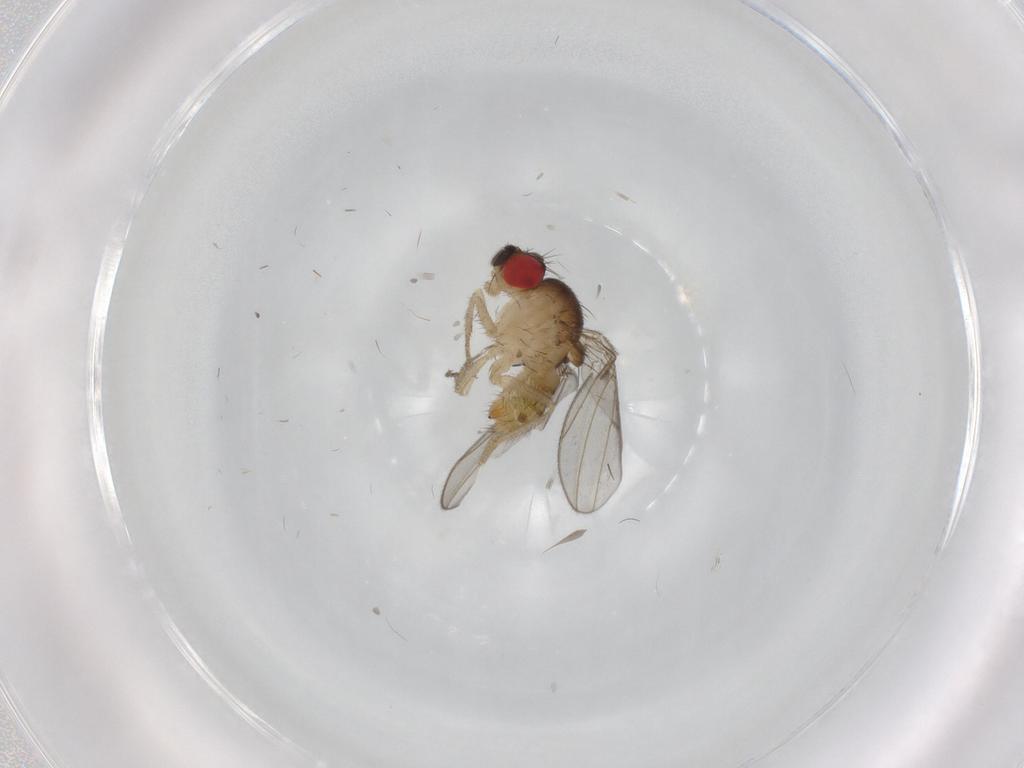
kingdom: Animalia
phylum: Arthropoda
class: Insecta
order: Diptera
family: Drosophilidae
